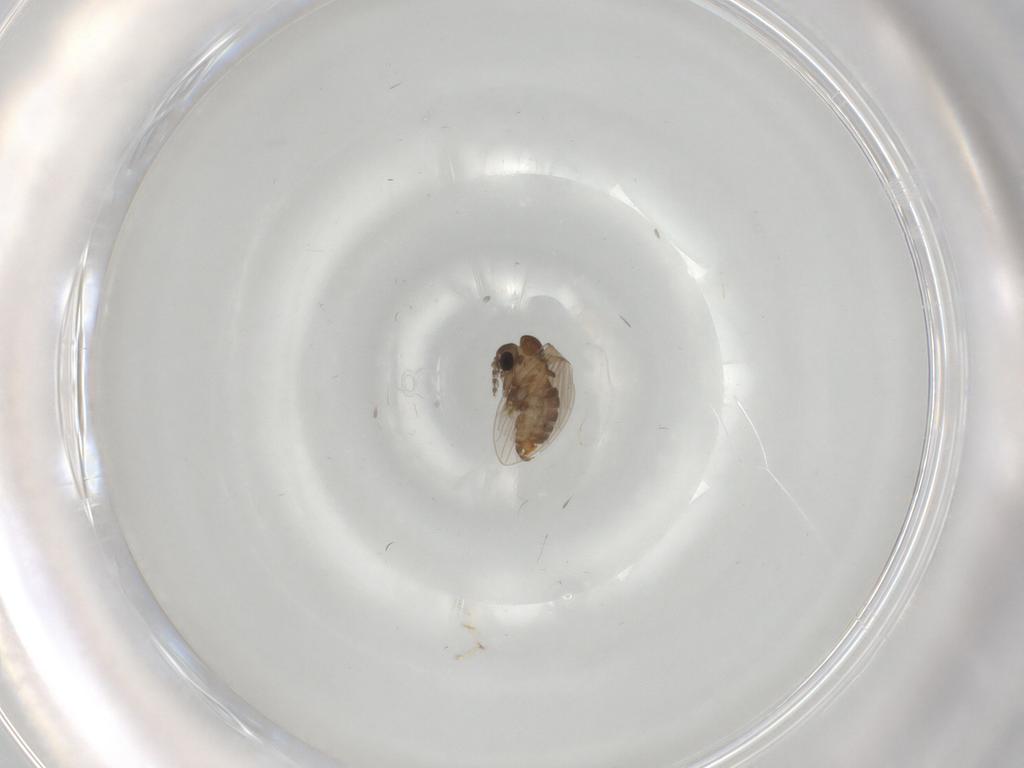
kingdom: Animalia
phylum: Arthropoda
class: Insecta
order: Diptera
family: Cecidomyiidae
